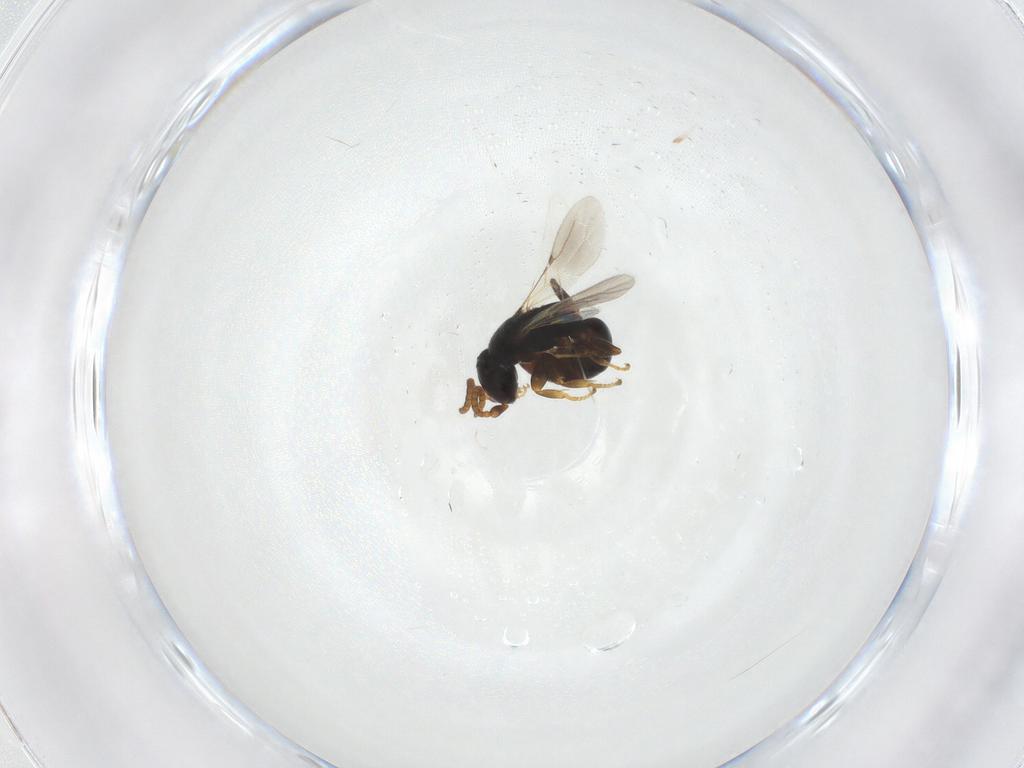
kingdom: Animalia
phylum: Arthropoda
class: Insecta
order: Hymenoptera
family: Bethylidae
